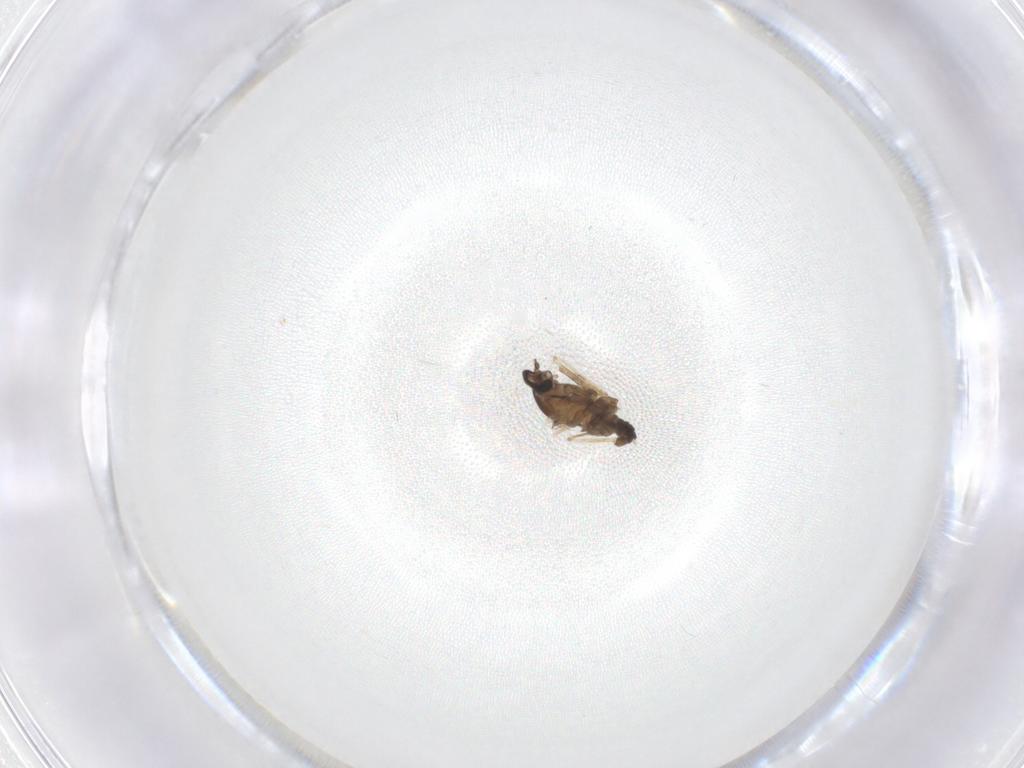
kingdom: Animalia
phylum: Arthropoda
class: Insecta
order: Diptera
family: Cecidomyiidae
